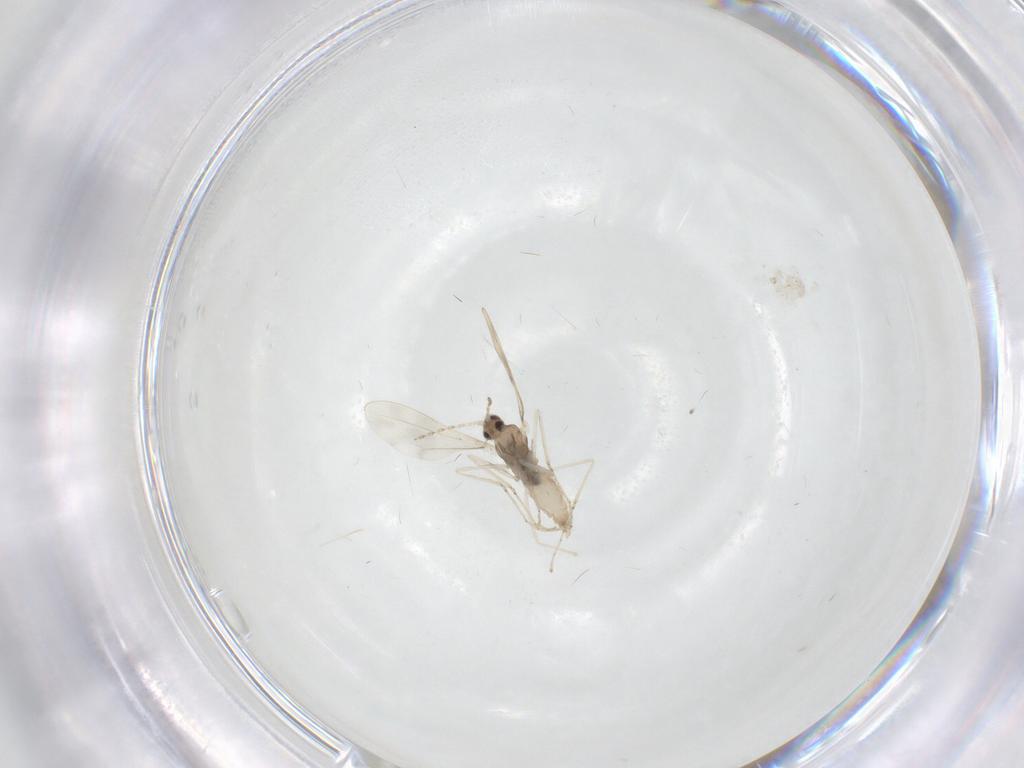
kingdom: Animalia
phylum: Arthropoda
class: Insecta
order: Diptera
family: Cecidomyiidae
